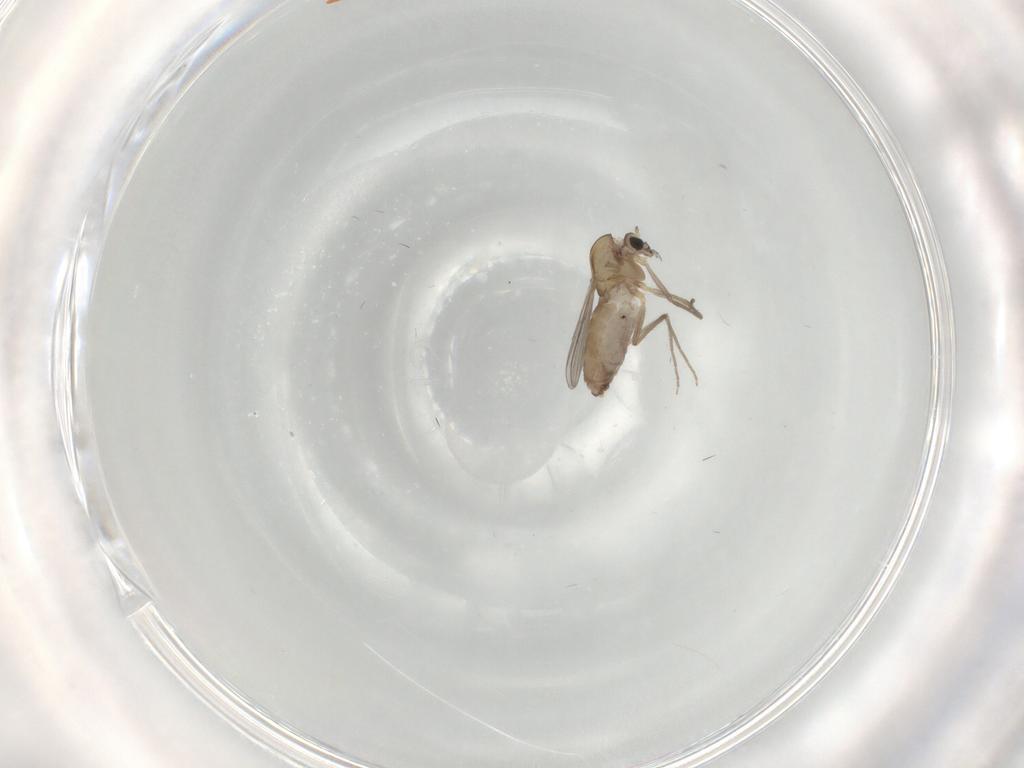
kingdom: Animalia
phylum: Arthropoda
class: Insecta
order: Diptera
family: Chironomidae
